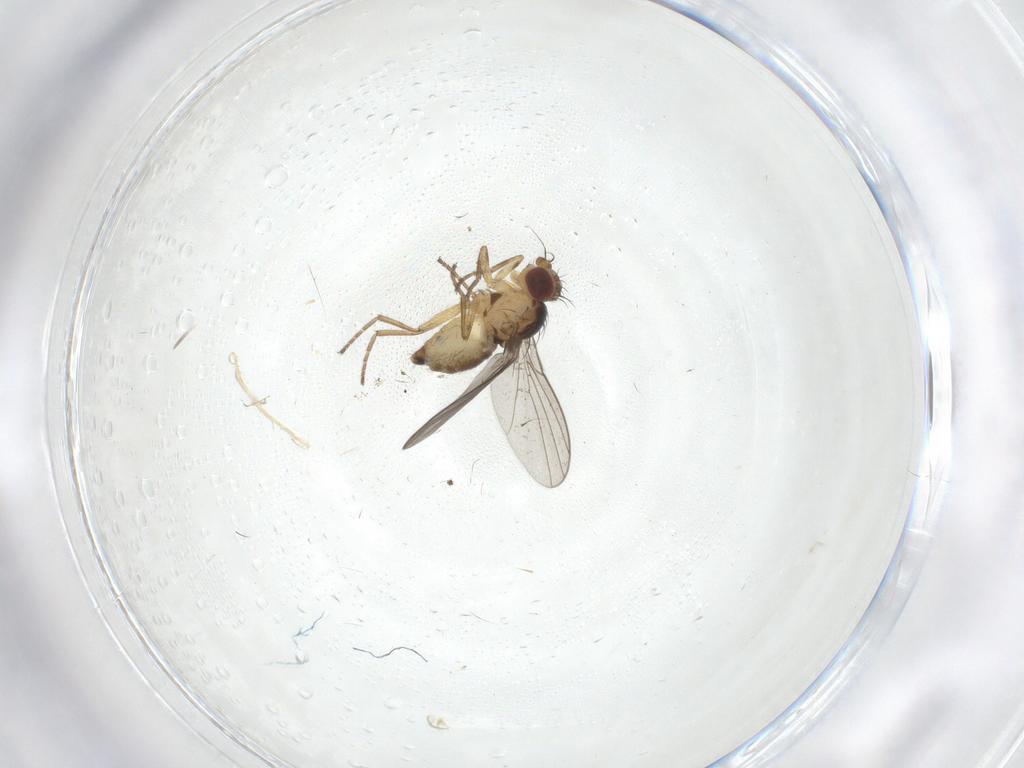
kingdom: Animalia
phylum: Arthropoda
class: Insecta
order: Diptera
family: Agromyzidae
